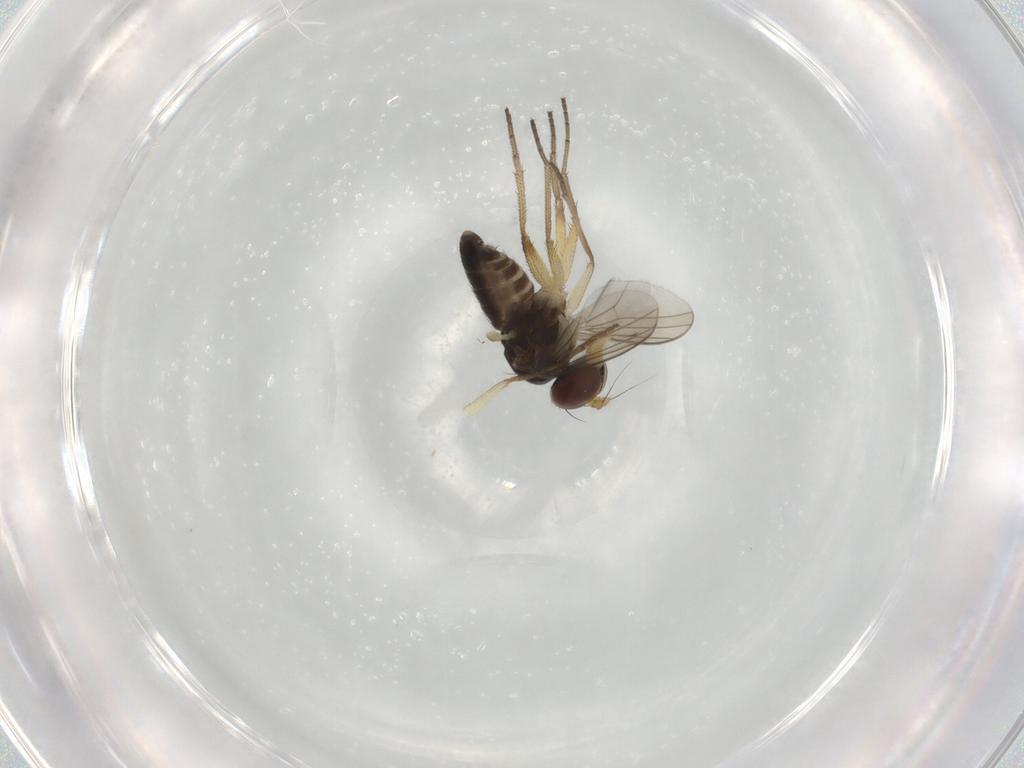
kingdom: Animalia
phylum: Arthropoda
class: Insecta
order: Diptera
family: Dolichopodidae
